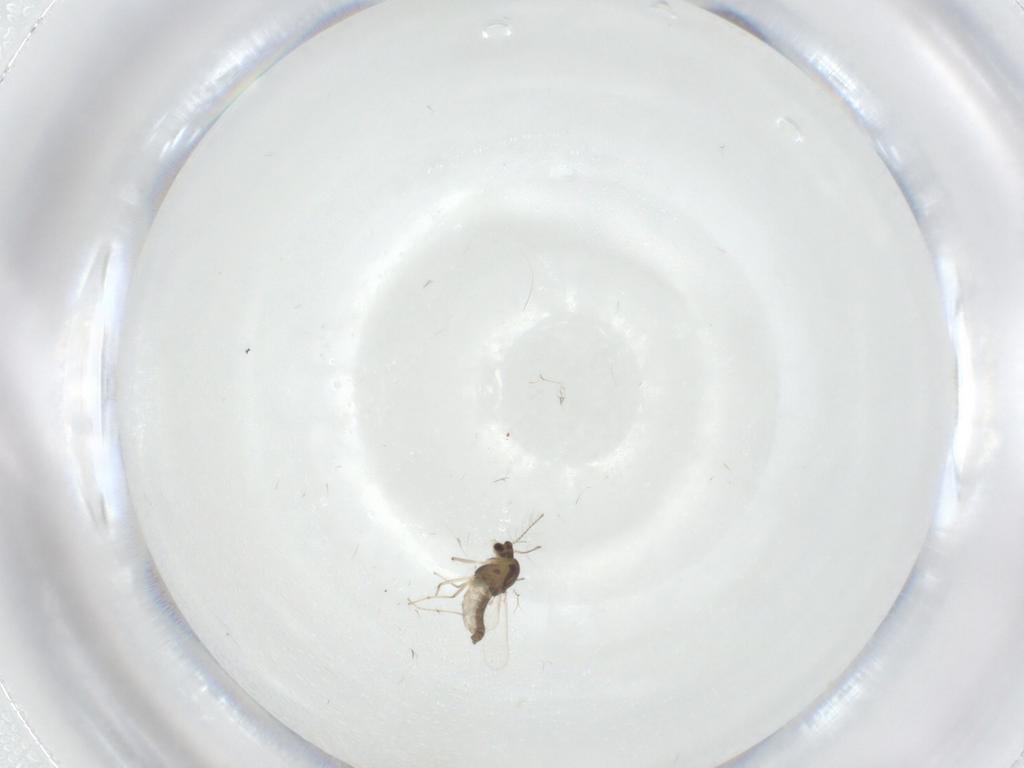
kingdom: Animalia
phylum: Arthropoda
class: Insecta
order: Diptera
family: Chironomidae
